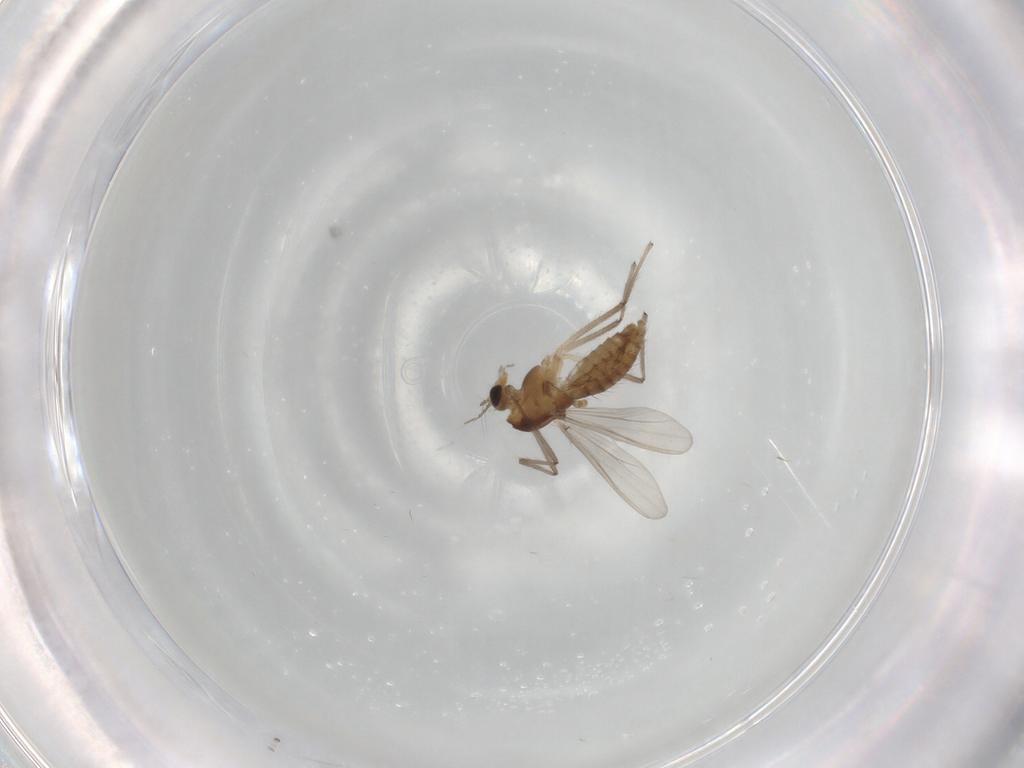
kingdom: Animalia
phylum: Arthropoda
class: Insecta
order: Diptera
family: Chironomidae
